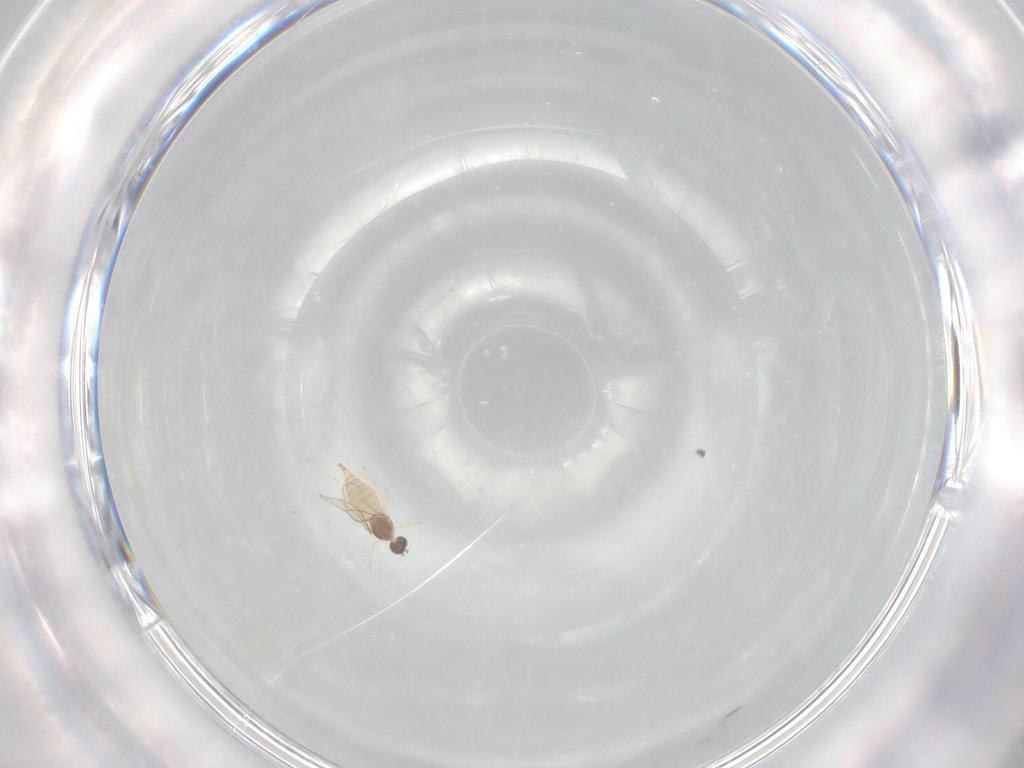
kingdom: Animalia
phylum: Arthropoda
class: Insecta
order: Diptera
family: Cecidomyiidae
